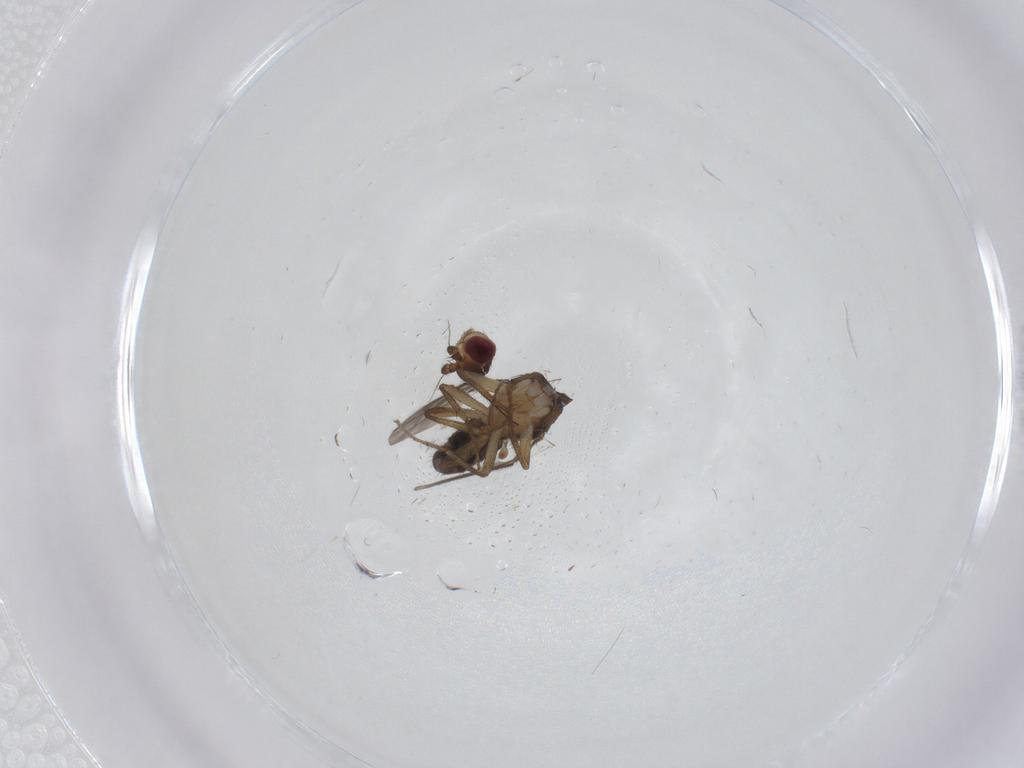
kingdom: Animalia
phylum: Arthropoda
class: Insecta
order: Diptera
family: Sphaeroceridae
